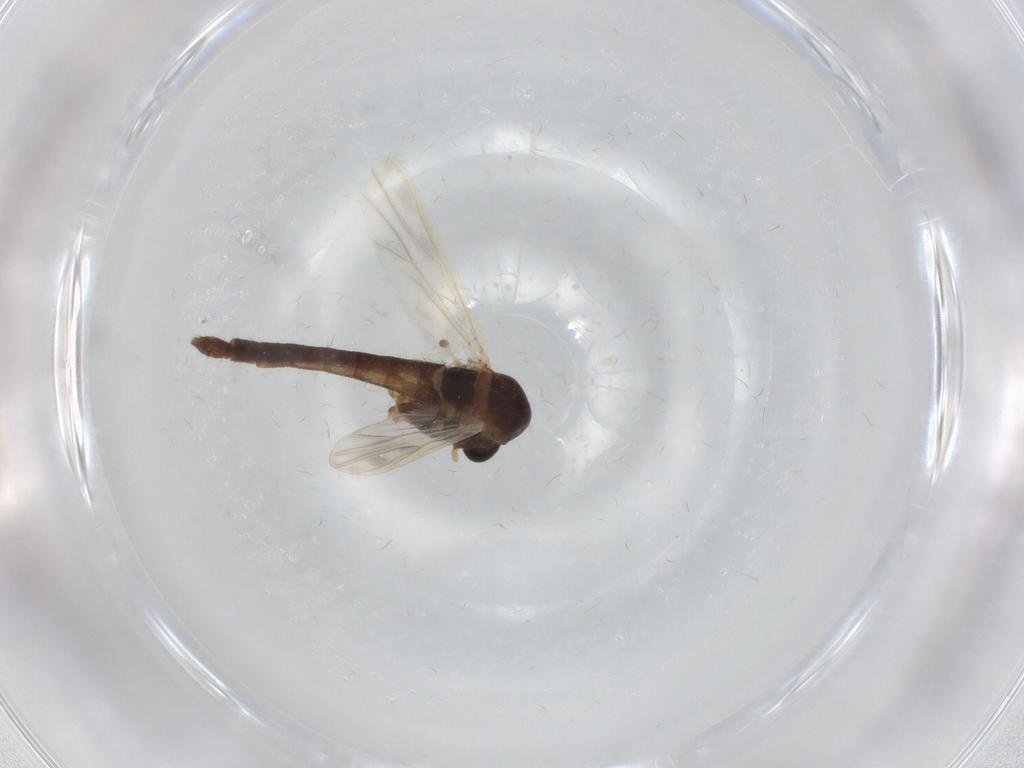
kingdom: Animalia
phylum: Arthropoda
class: Insecta
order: Diptera
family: Chironomidae
